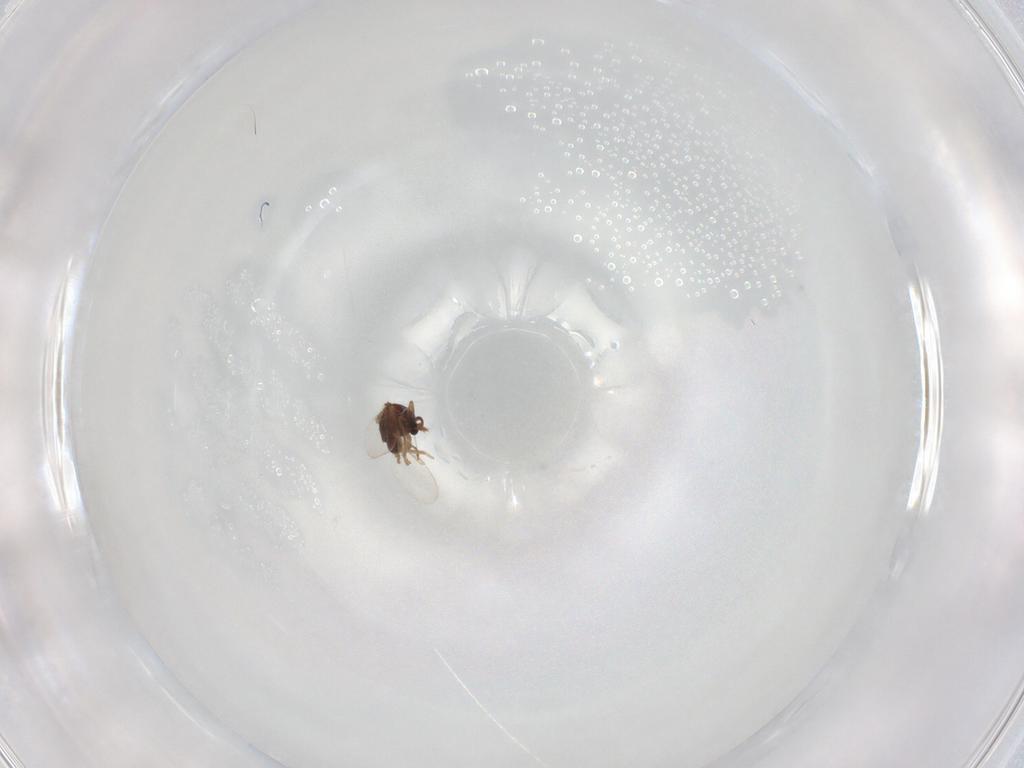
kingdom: Animalia
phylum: Arthropoda
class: Insecta
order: Diptera
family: Ceratopogonidae
